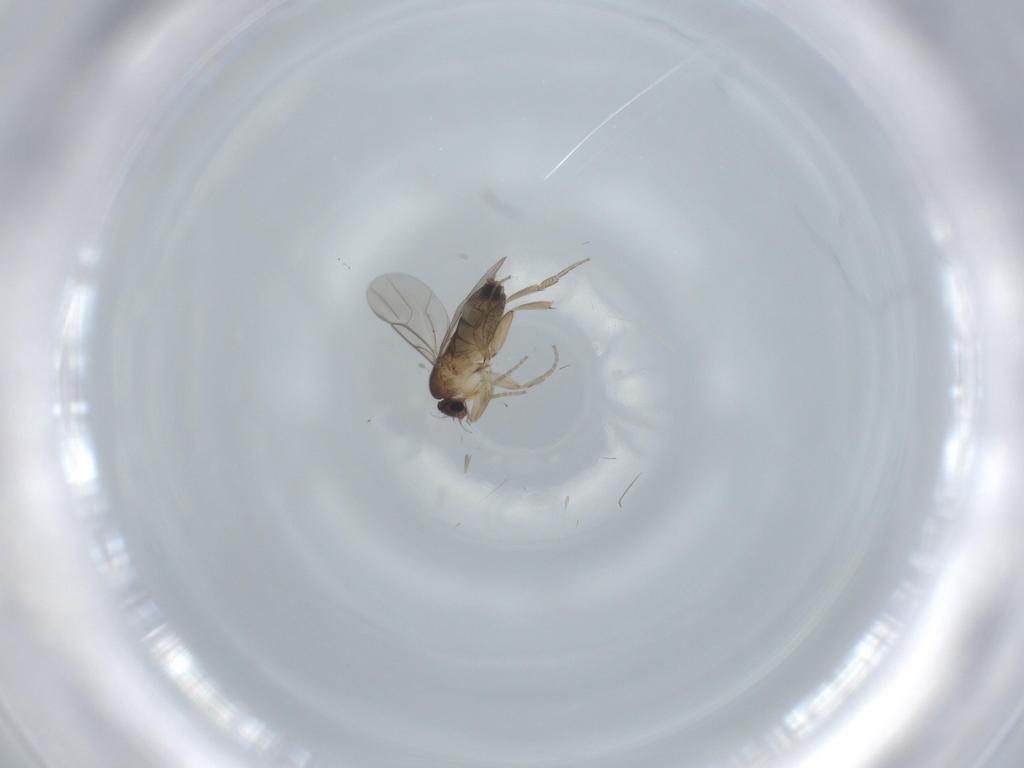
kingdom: Animalia
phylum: Arthropoda
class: Insecta
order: Diptera
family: Phoridae
